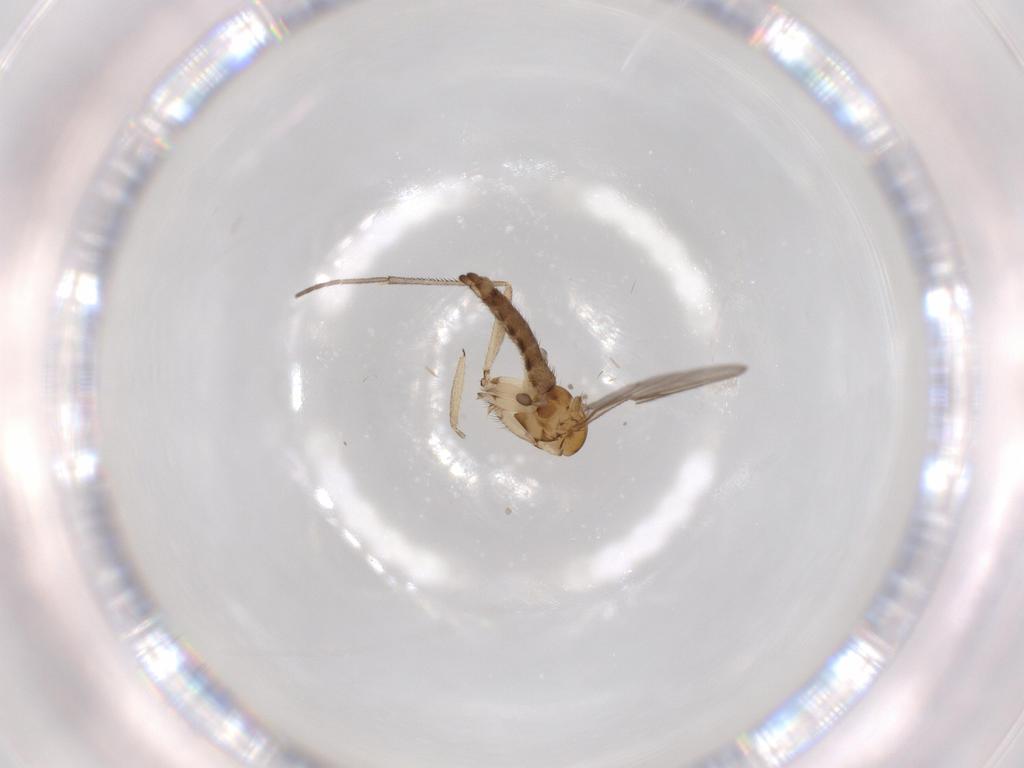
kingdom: Animalia
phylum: Arthropoda
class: Insecta
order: Diptera
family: Sciaridae
